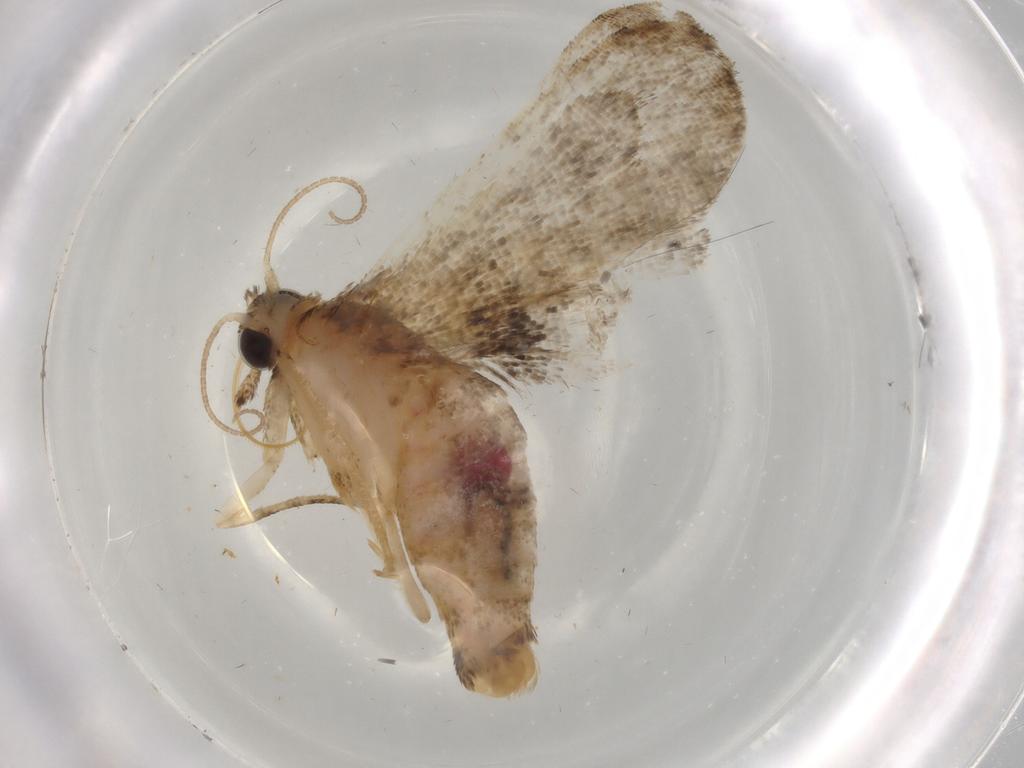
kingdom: Animalia
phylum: Arthropoda
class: Insecta
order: Lepidoptera
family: Erebidae
